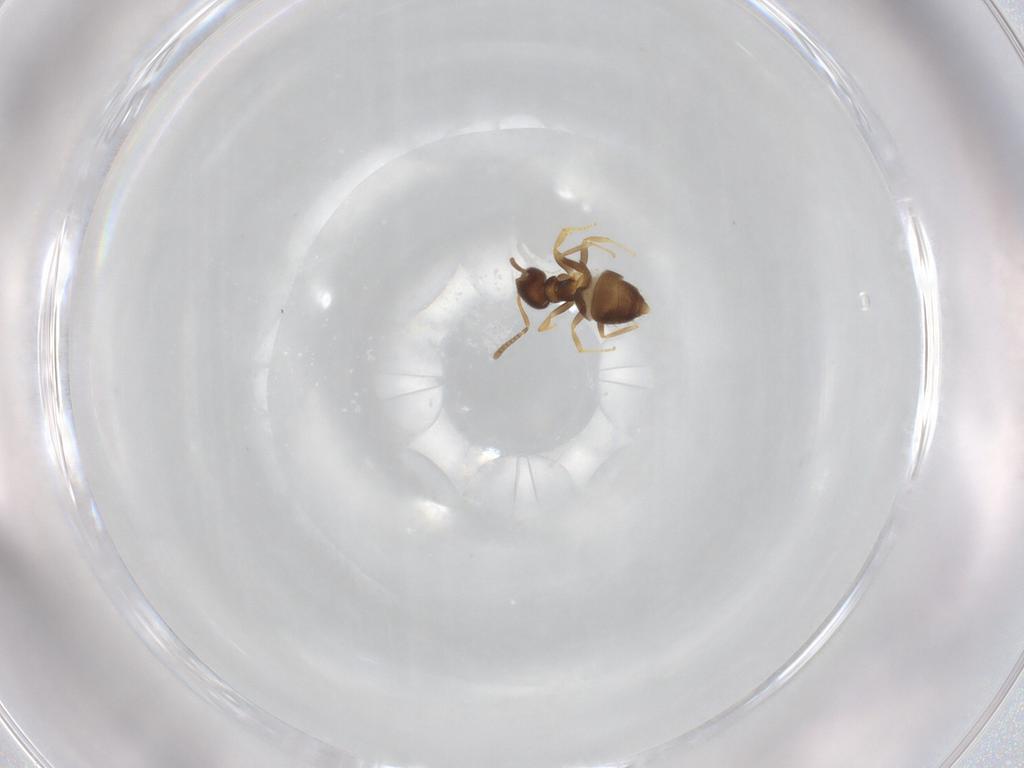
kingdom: Animalia
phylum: Arthropoda
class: Insecta
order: Hymenoptera
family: Formicidae
